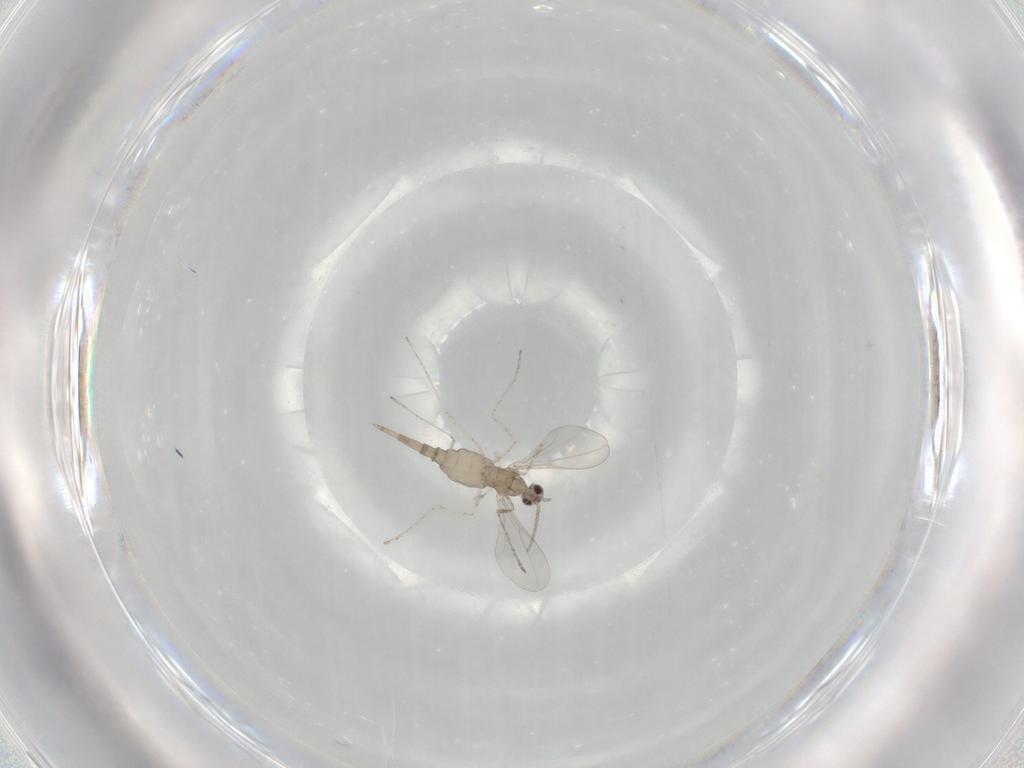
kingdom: Animalia
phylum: Arthropoda
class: Insecta
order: Diptera
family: Cecidomyiidae
